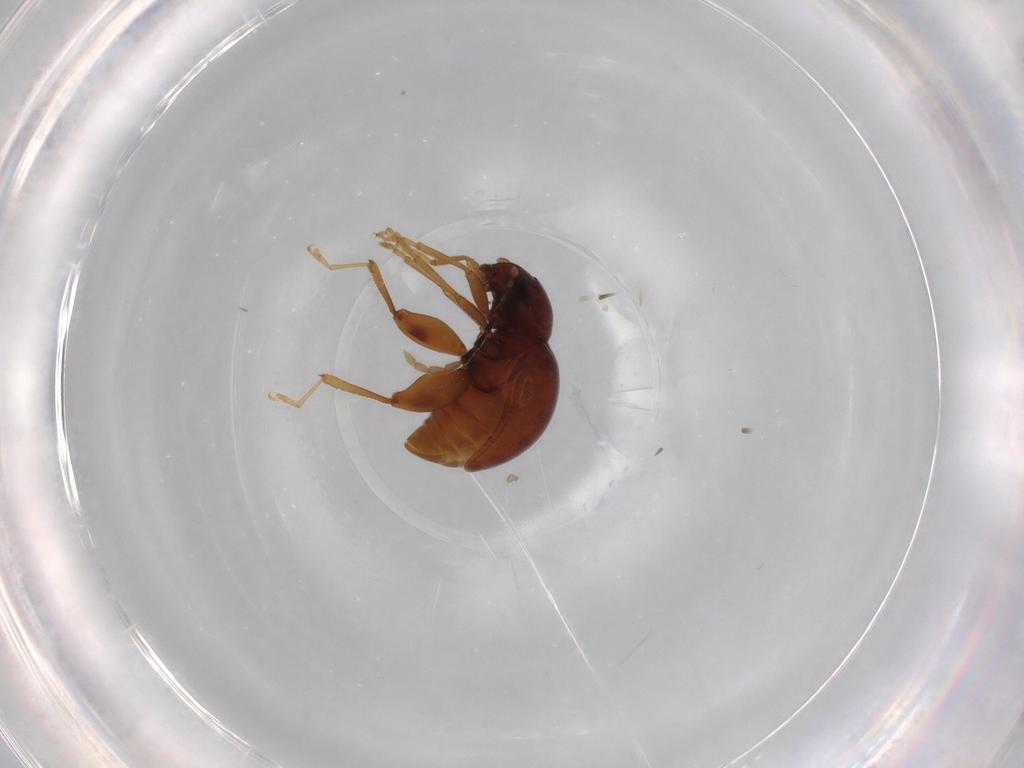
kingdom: Animalia
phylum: Arthropoda
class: Insecta
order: Coleoptera
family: Chrysomelidae
